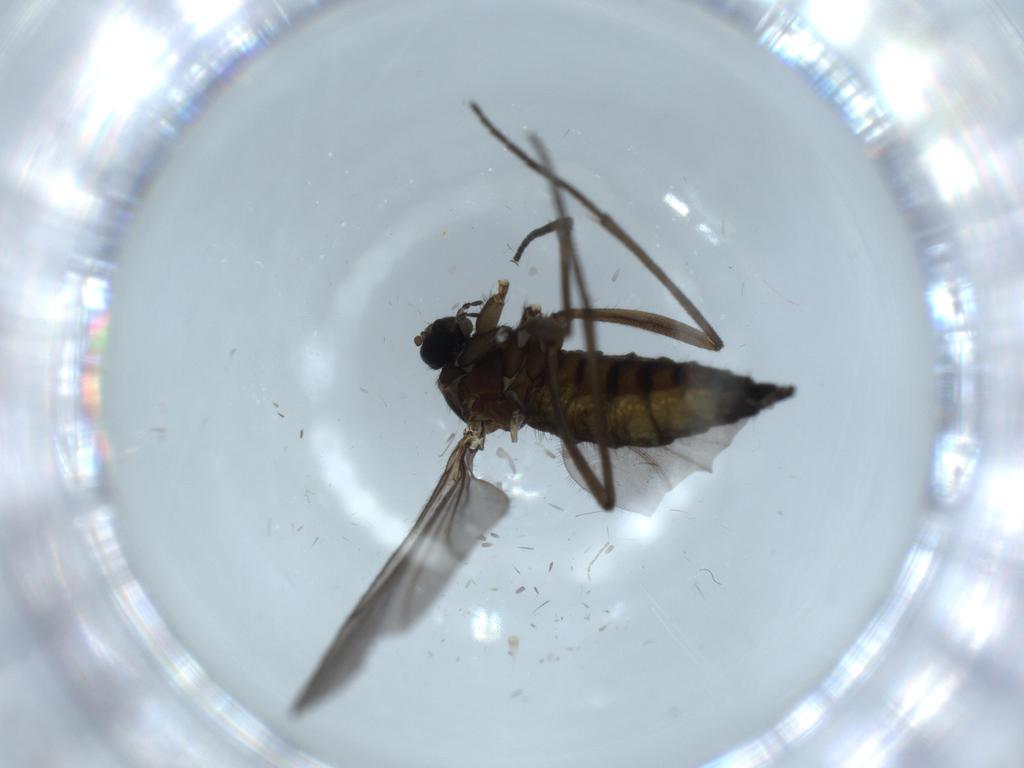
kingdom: Animalia
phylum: Arthropoda
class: Insecta
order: Diptera
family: Sciaridae
